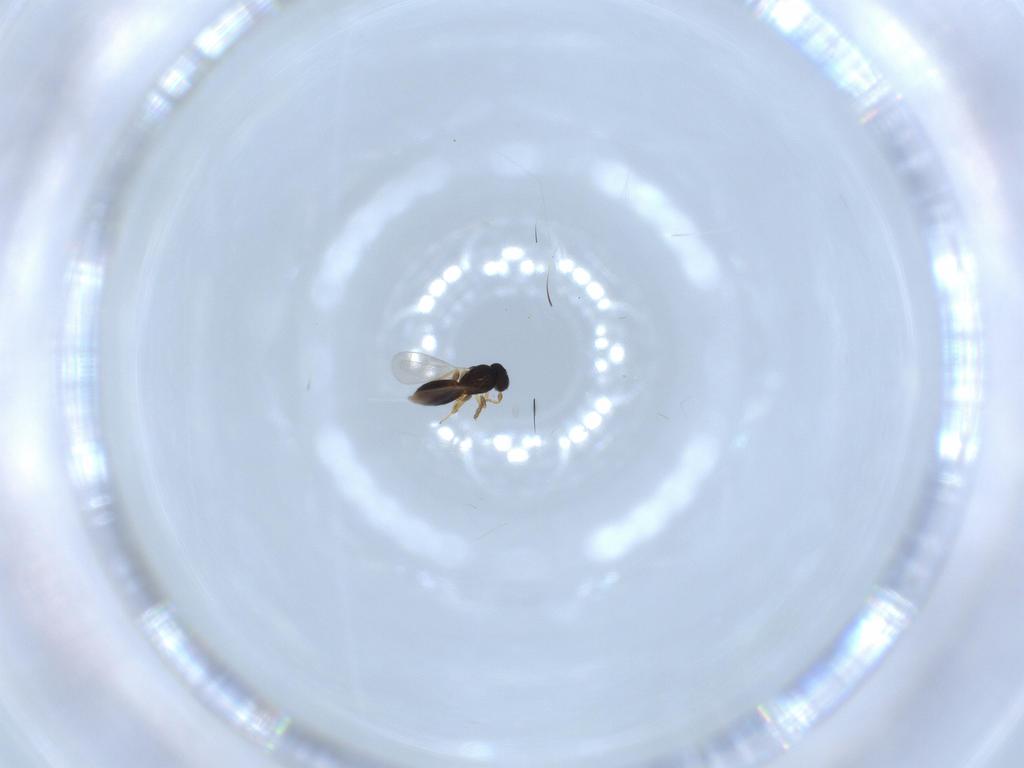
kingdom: Animalia
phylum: Arthropoda
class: Insecta
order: Hymenoptera
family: Platygastridae
